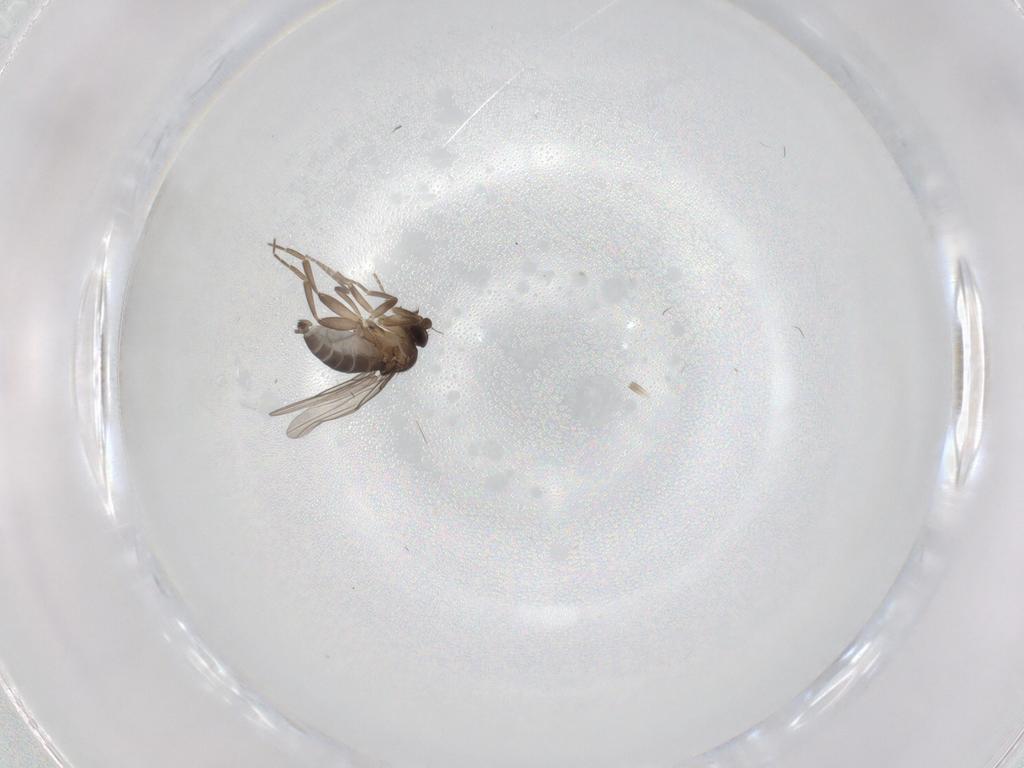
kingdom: Animalia
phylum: Arthropoda
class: Insecta
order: Diptera
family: Phoridae
